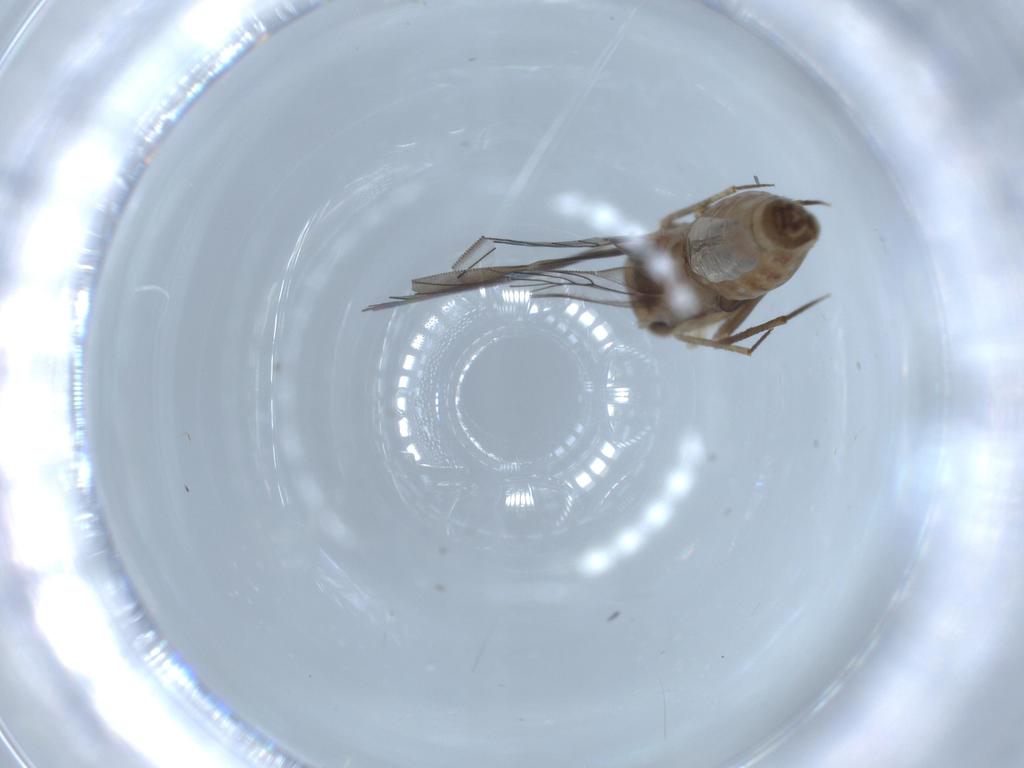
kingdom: Animalia
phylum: Arthropoda
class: Insecta
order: Psocodea
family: Lepidopsocidae
